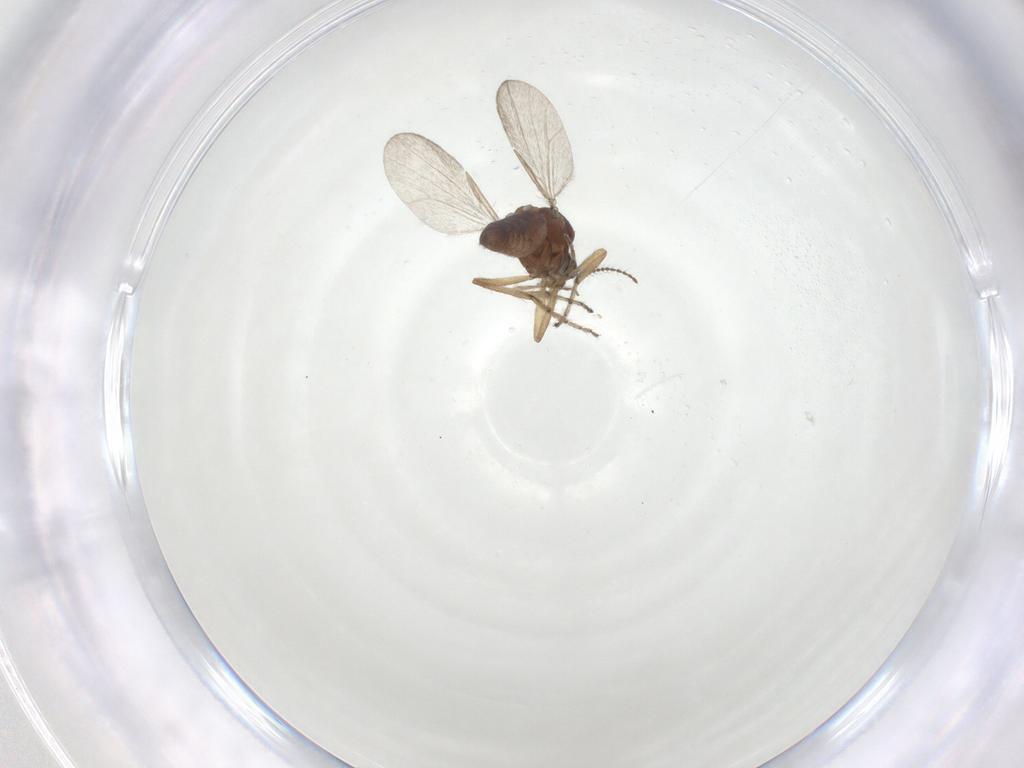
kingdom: Animalia
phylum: Arthropoda
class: Insecta
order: Diptera
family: Ceratopogonidae
